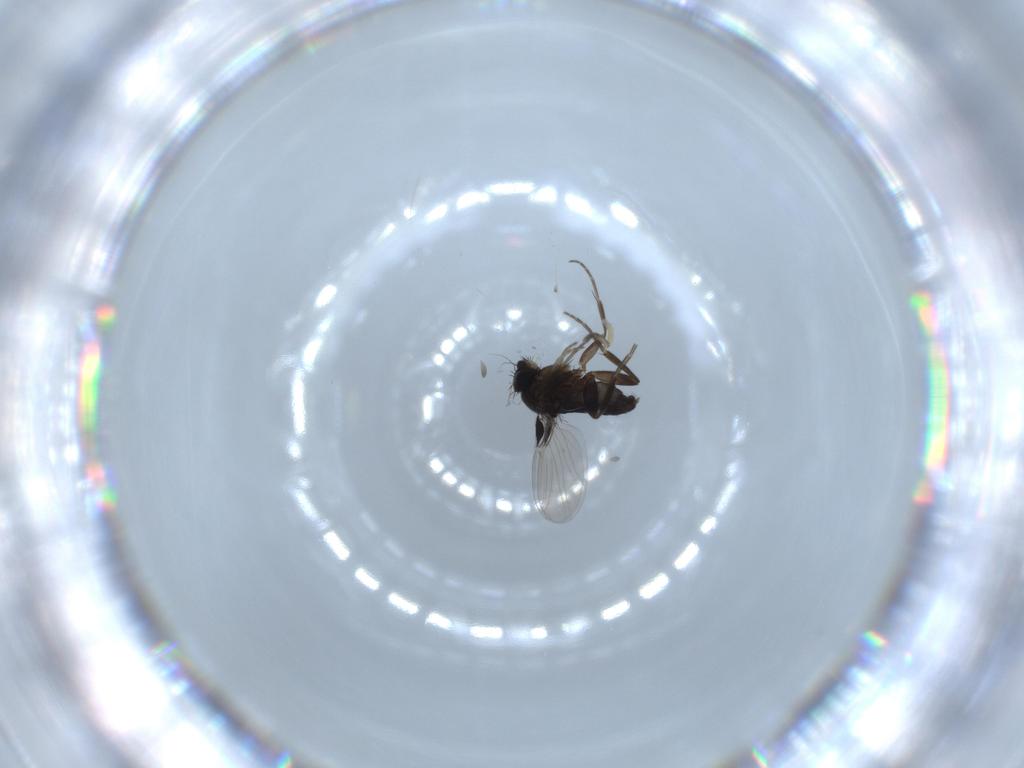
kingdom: Animalia
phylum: Arthropoda
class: Insecta
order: Diptera
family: Phoridae
